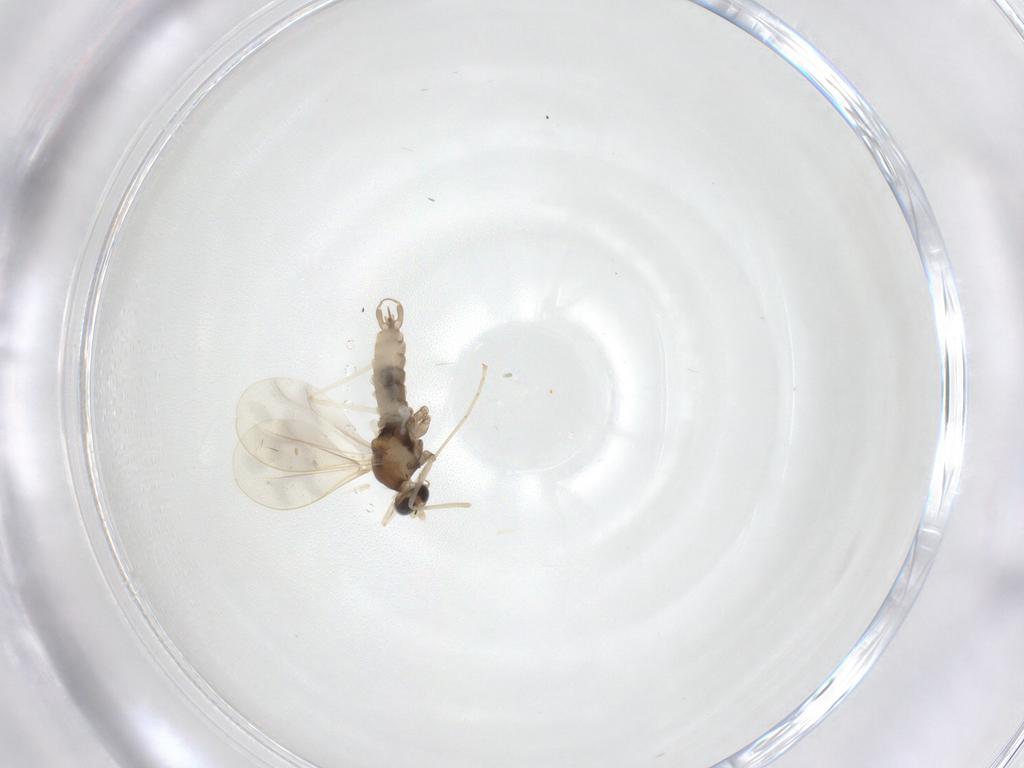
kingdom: Animalia
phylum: Arthropoda
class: Insecta
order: Diptera
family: Cecidomyiidae
